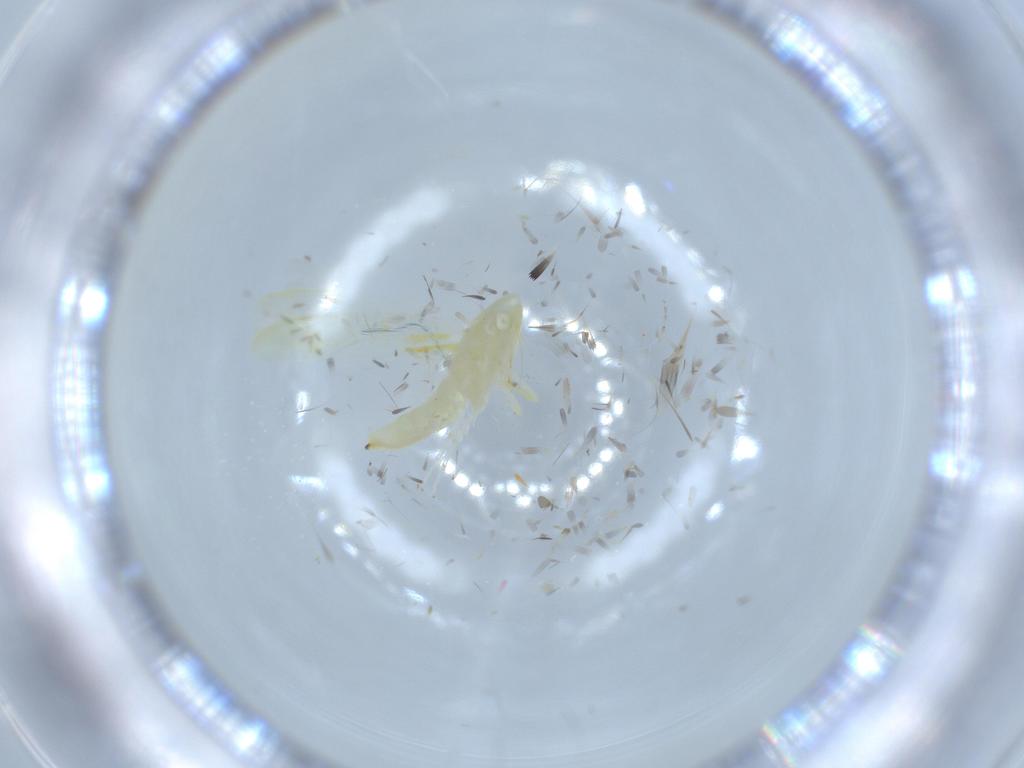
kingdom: Animalia
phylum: Arthropoda
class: Insecta
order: Hemiptera
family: Cicadellidae
